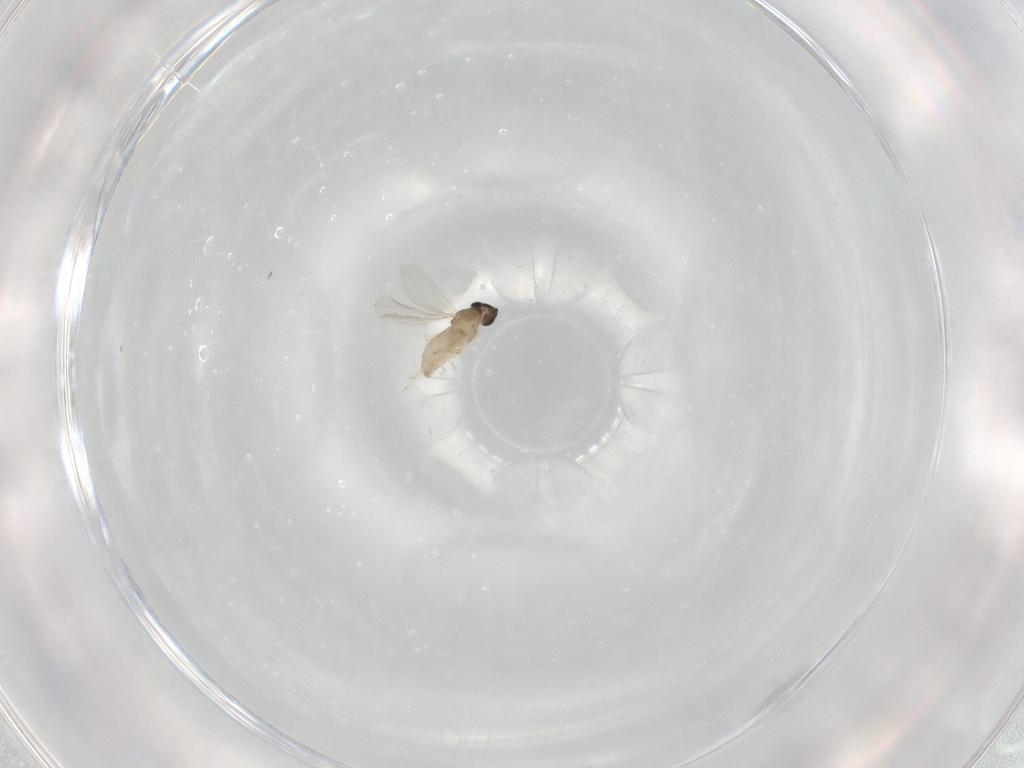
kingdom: Animalia
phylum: Arthropoda
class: Insecta
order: Diptera
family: Cecidomyiidae
